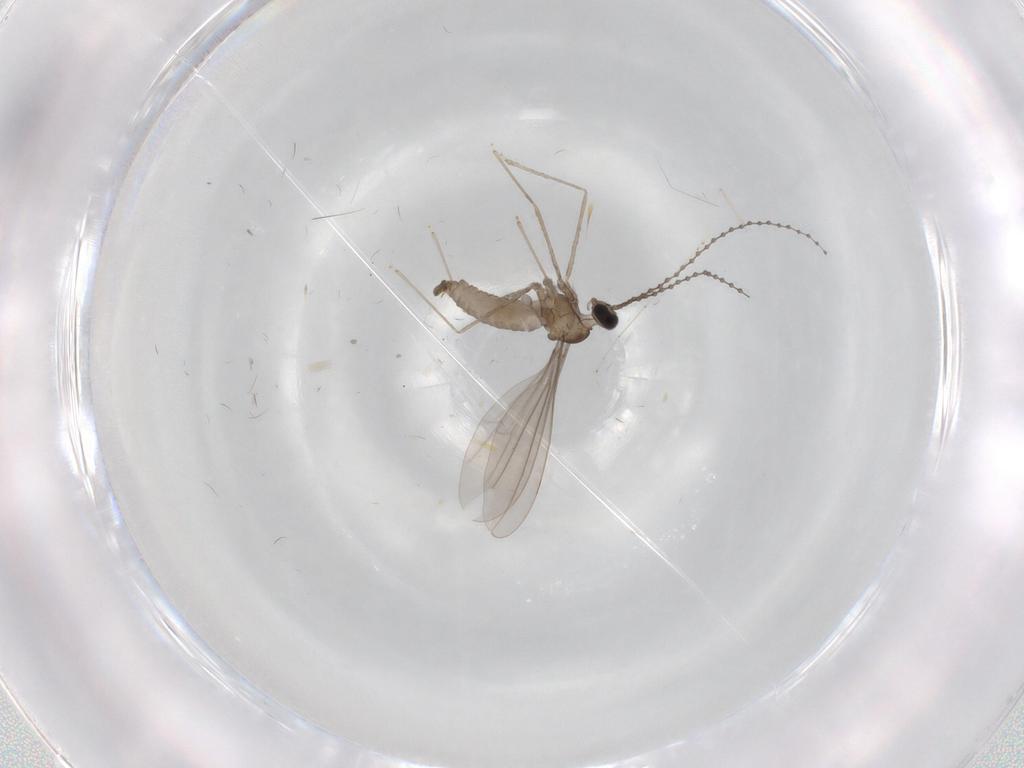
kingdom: Animalia
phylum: Arthropoda
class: Insecta
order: Diptera
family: Cecidomyiidae
